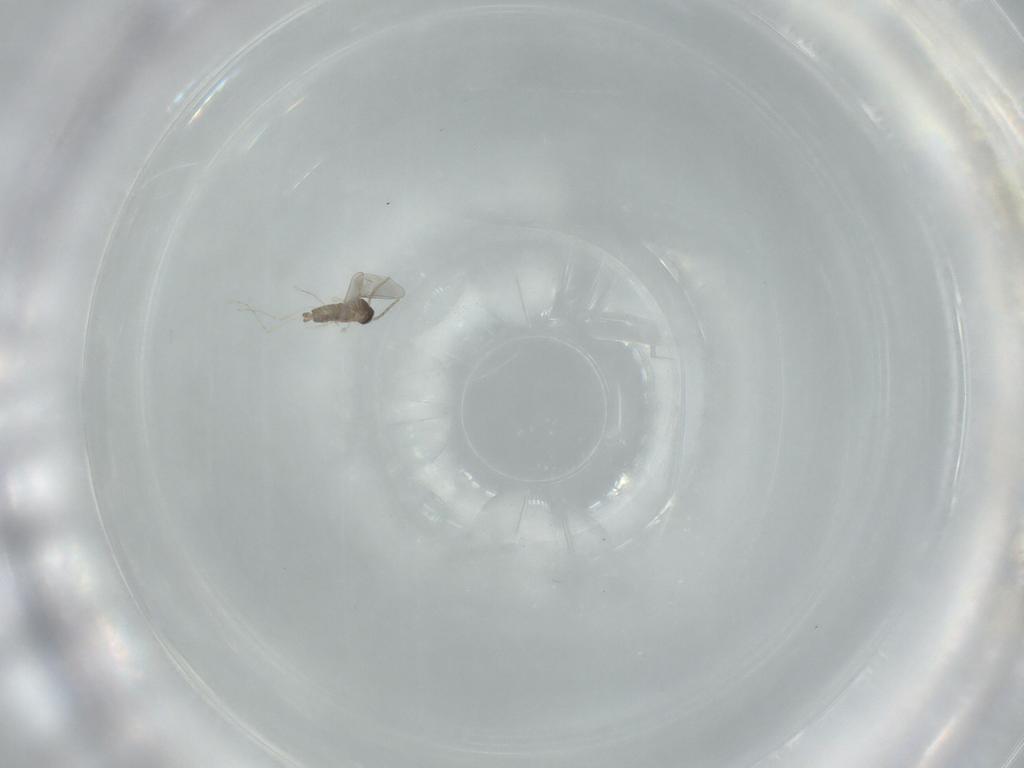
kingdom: Animalia
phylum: Arthropoda
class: Insecta
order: Diptera
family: Sciaridae
